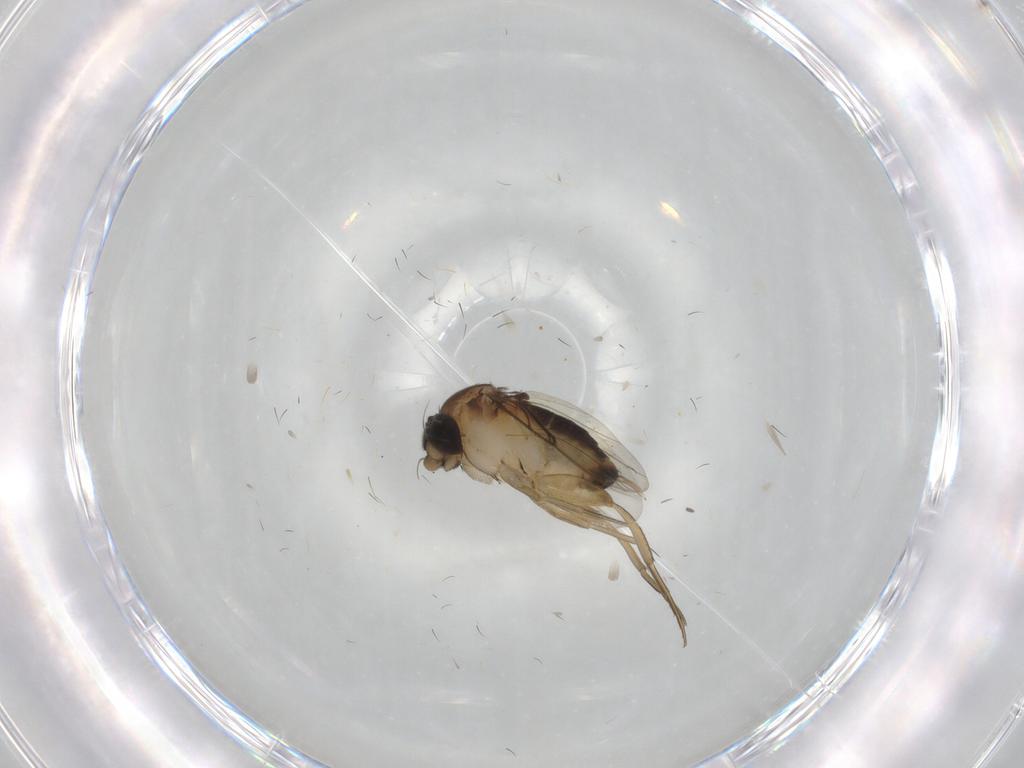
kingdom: Animalia
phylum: Arthropoda
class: Insecta
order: Diptera
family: Phoridae
